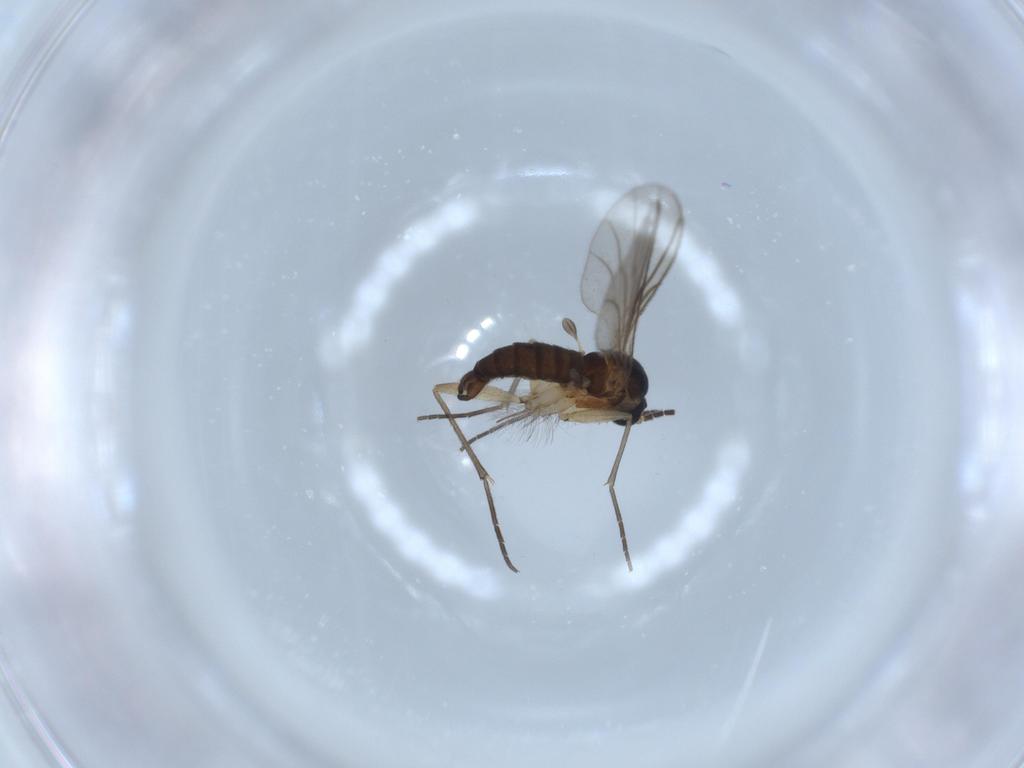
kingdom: Animalia
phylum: Arthropoda
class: Insecta
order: Diptera
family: Sciaridae
